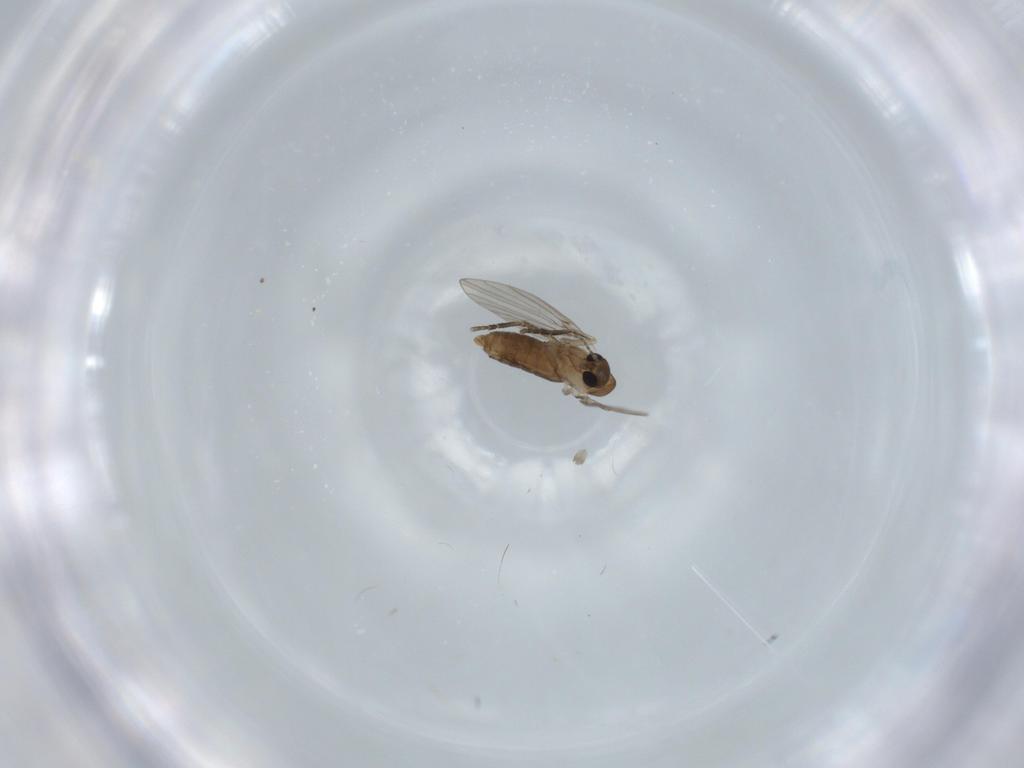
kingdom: Animalia
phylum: Arthropoda
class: Insecta
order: Diptera
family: Psychodidae
